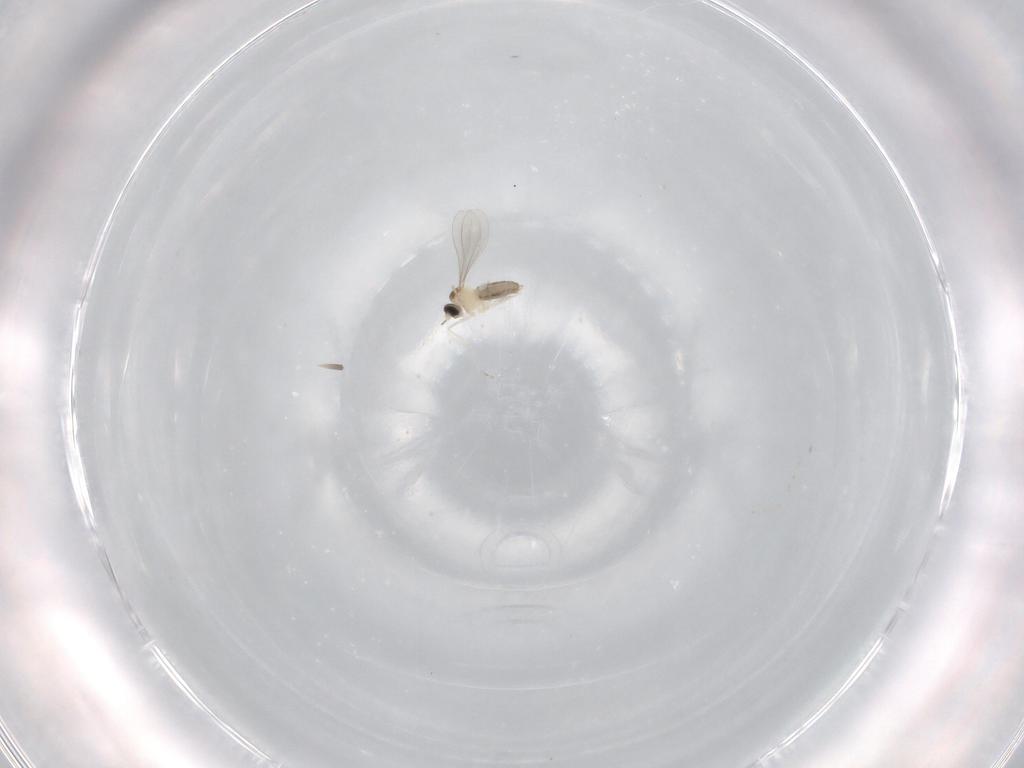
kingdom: Animalia
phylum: Arthropoda
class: Insecta
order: Diptera
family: Cecidomyiidae
